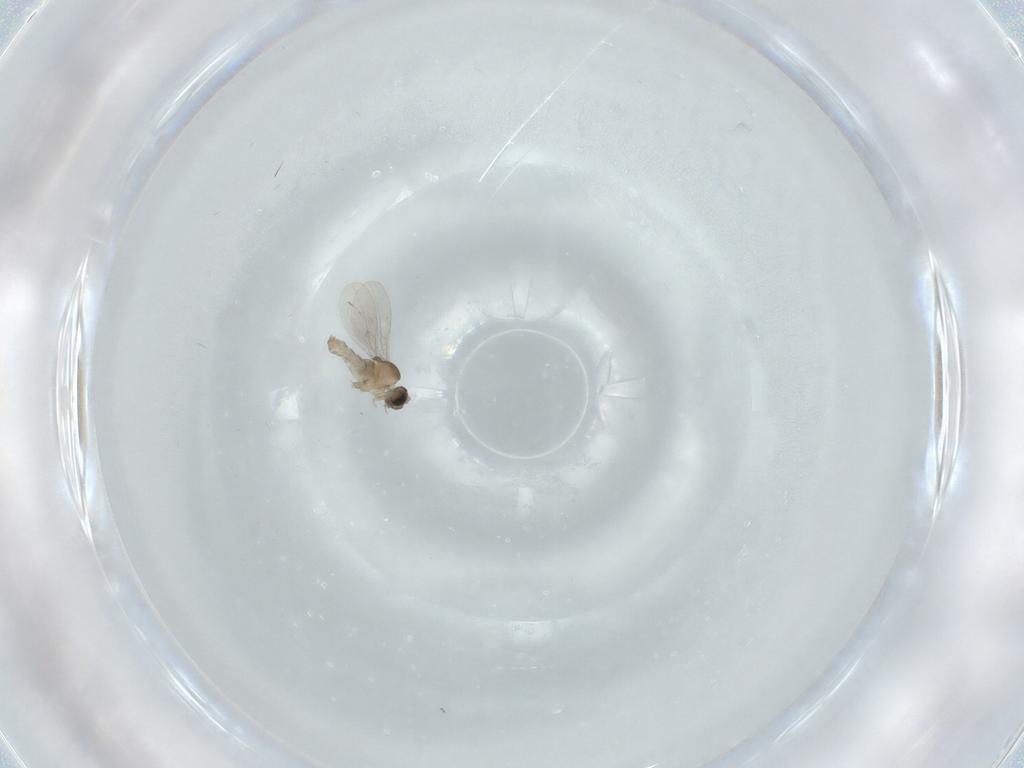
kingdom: Animalia
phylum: Arthropoda
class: Insecta
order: Diptera
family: Cecidomyiidae
